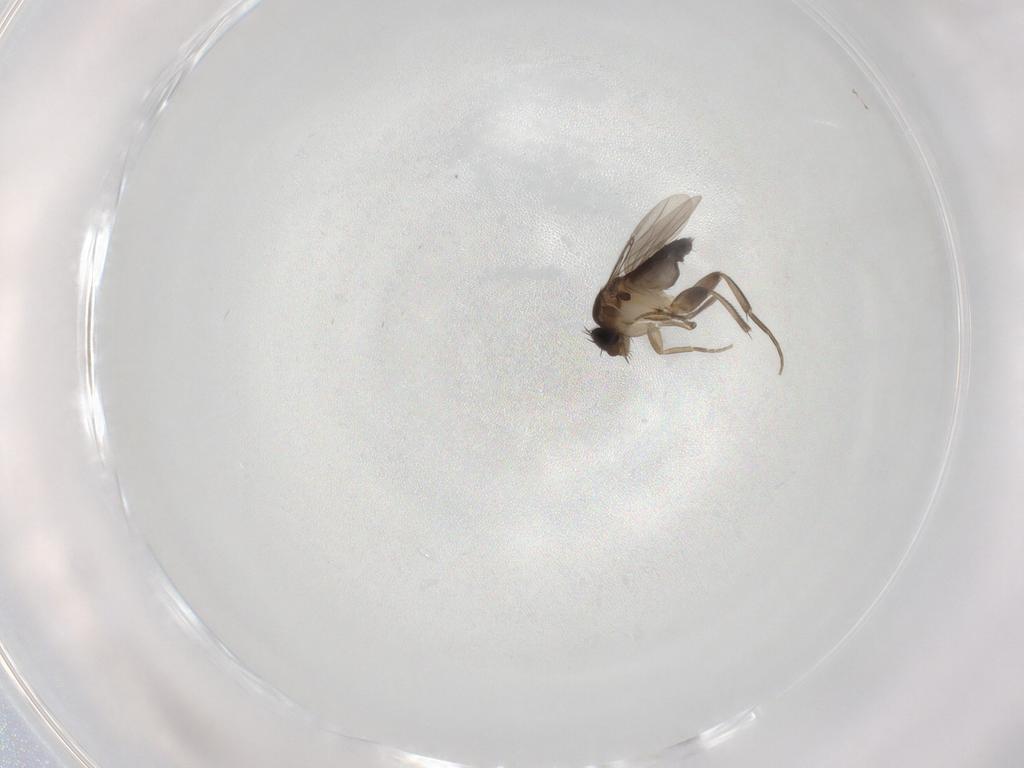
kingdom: Animalia
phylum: Arthropoda
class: Insecta
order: Diptera
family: Phoridae
